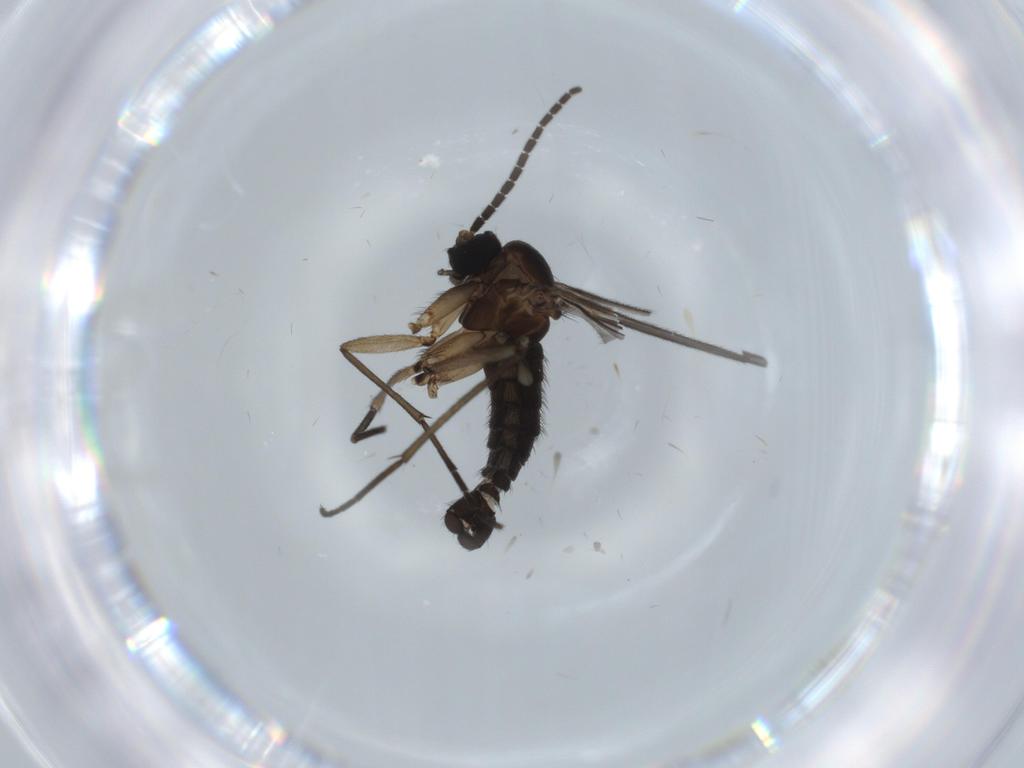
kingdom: Animalia
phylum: Arthropoda
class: Insecta
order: Diptera
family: Sciaridae
